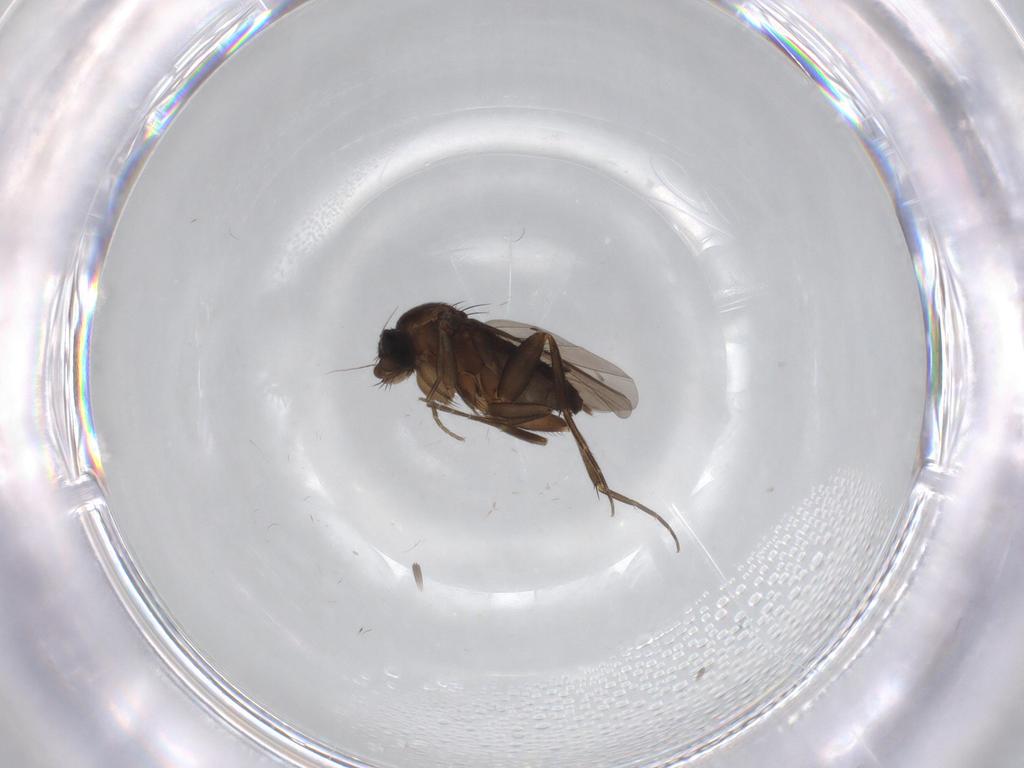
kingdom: Animalia
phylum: Arthropoda
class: Insecta
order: Diptera
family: Phoridae
